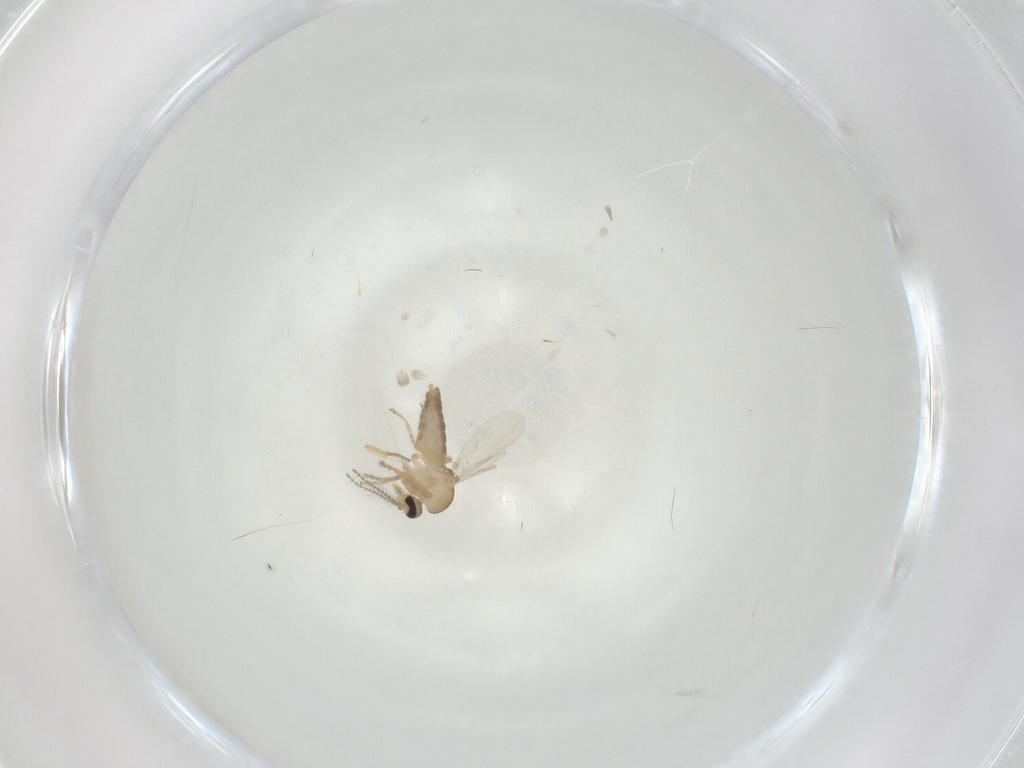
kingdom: Animalia
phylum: Arthropoda
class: Insecta
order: Diptera
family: Ceratopogonidae
